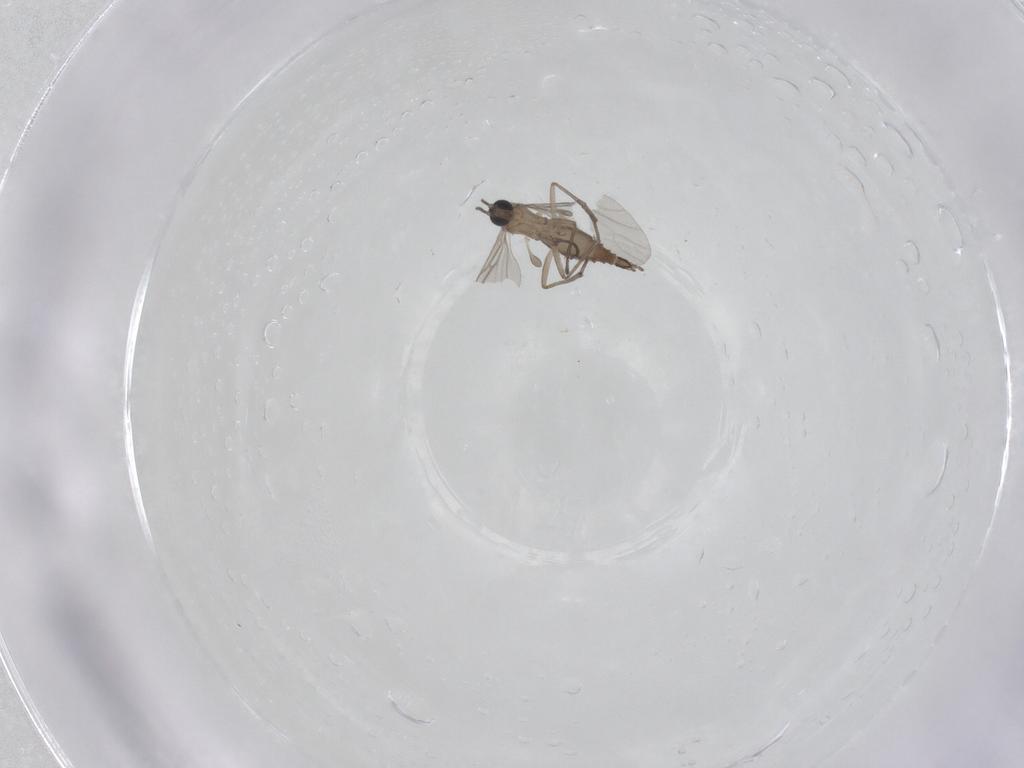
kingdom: Animalia
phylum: Arthropoda
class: Insecta
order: Diptera
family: Sciaridae
